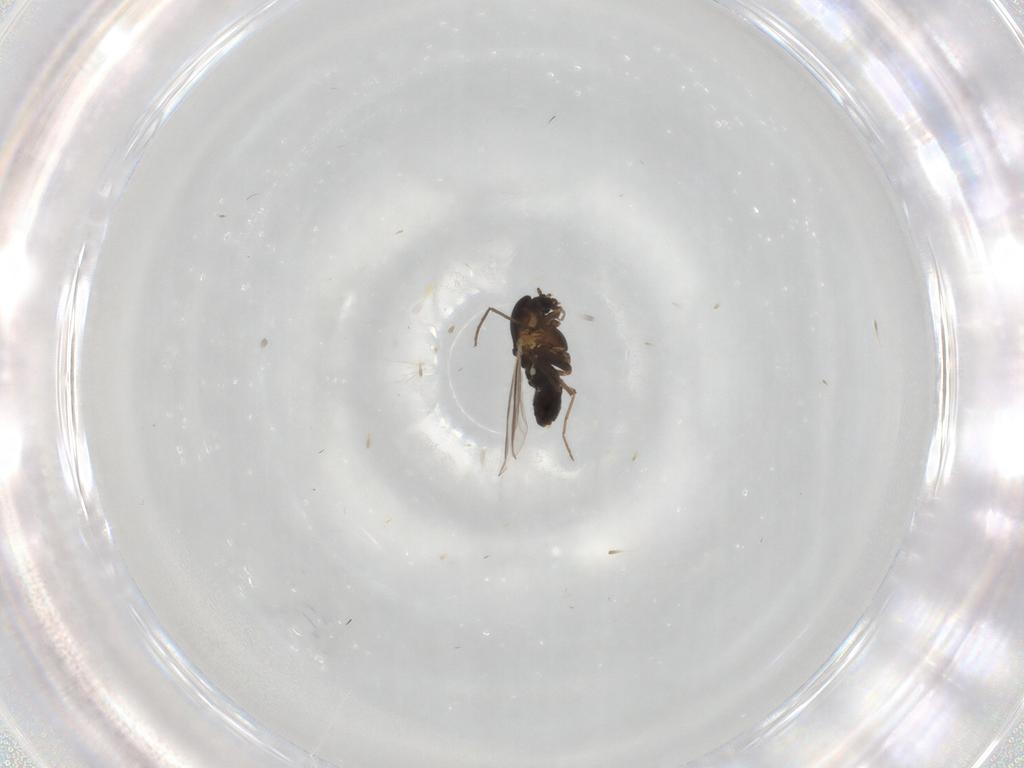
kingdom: Animalia
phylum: Arthropoda
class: Insecta
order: Diptera
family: Chironomidae
